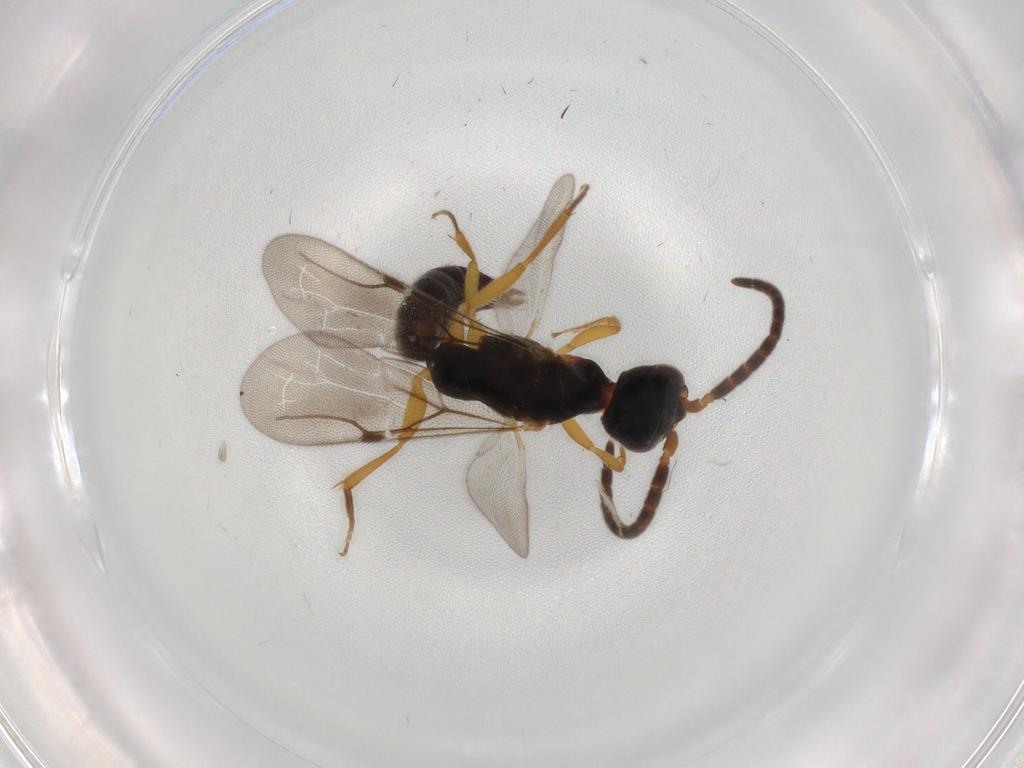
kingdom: Animalia
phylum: Arthropoda
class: Insecta
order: Hymenoptera
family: Bethylidae
